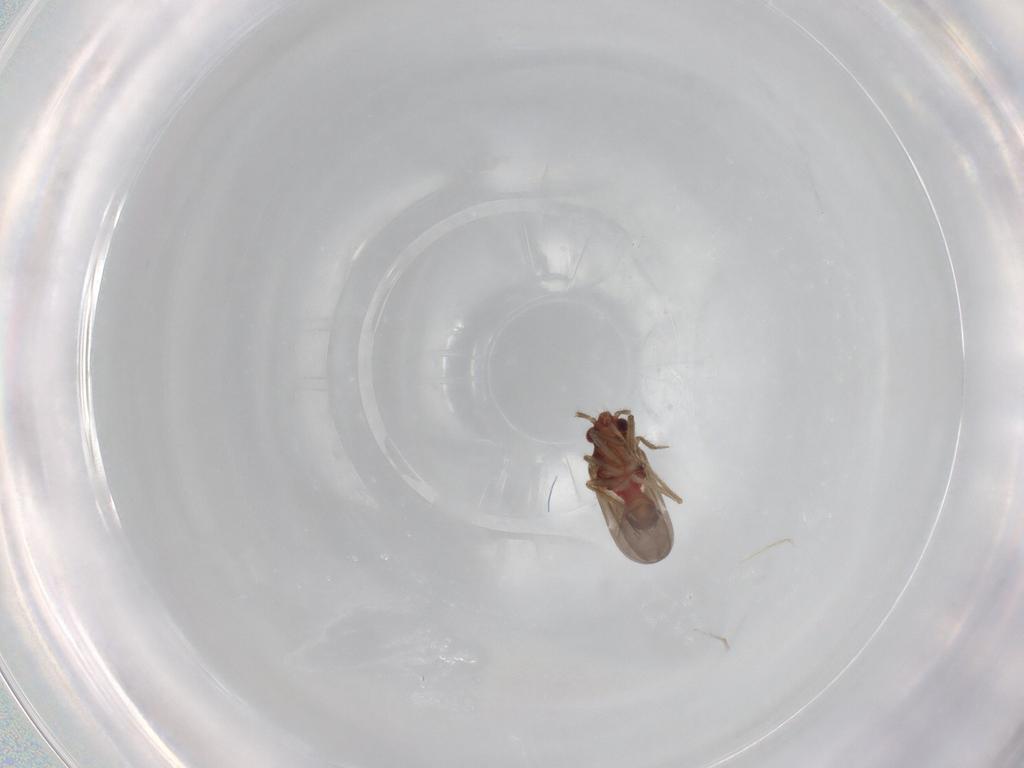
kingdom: Animalia
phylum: Arthropoda
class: Insecta
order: Hemiptera
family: Ceratocombidae
